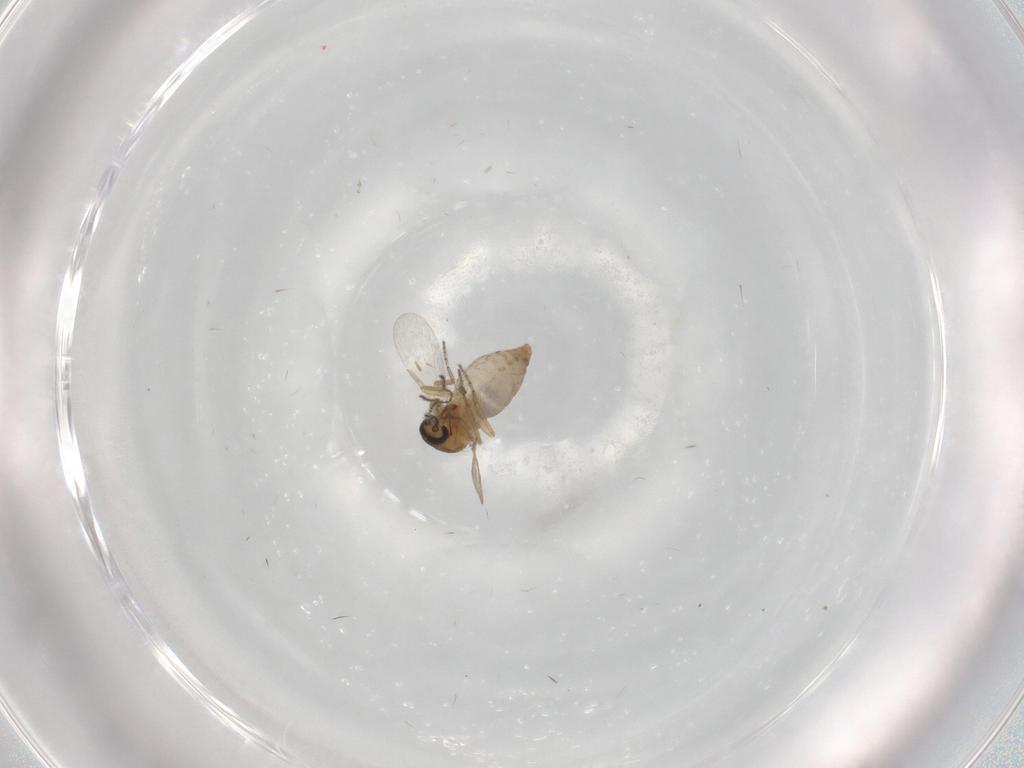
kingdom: Animalia
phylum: Arthropoda
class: Insecta
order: Diptera
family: Ceratopogonidae
